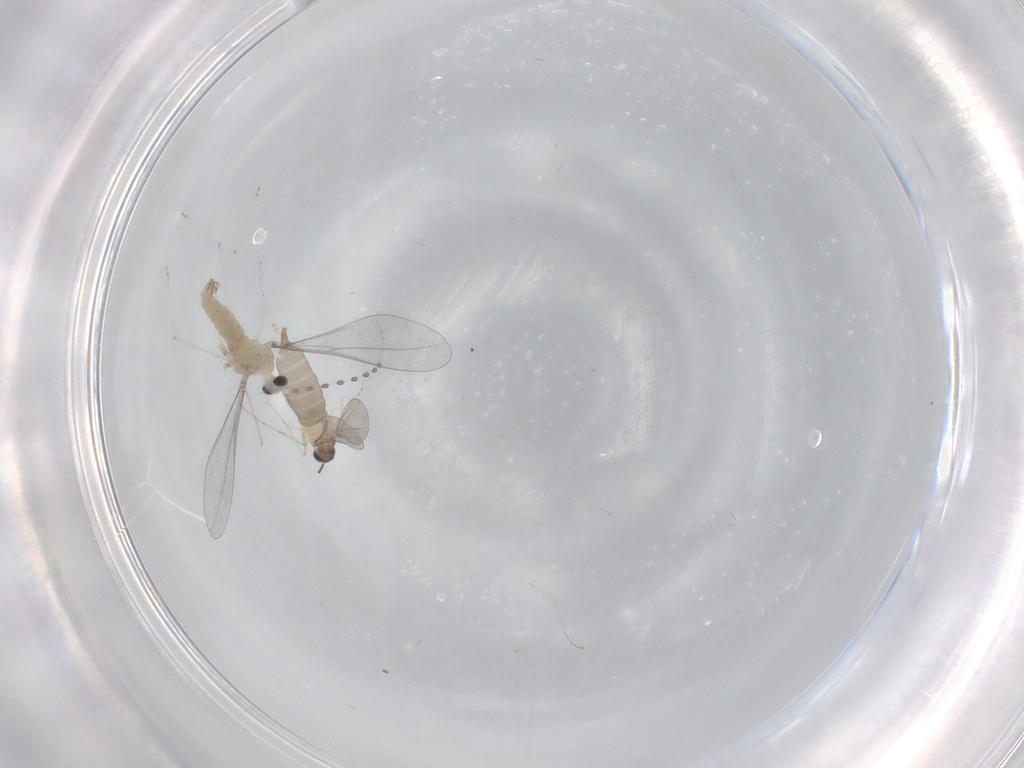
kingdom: Animalia
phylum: Arthropoda
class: Insecta
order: Diptera
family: Cecidomyiidae
